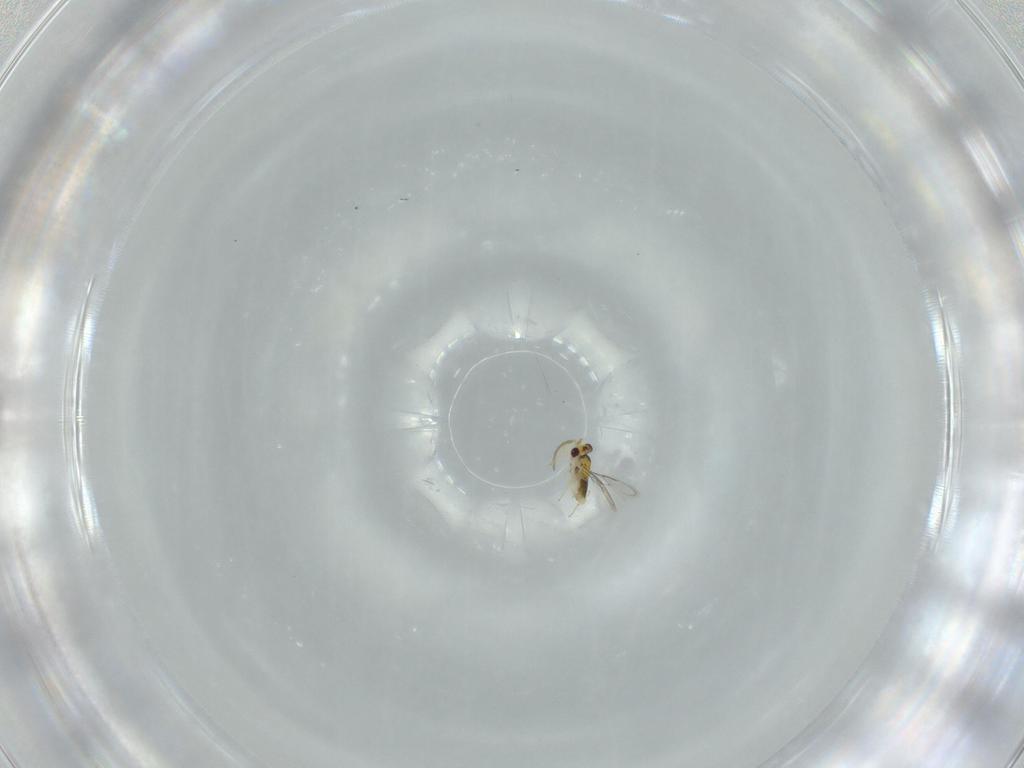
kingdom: Animalia
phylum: Arthropoda
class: Insecta
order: Hymenoptera
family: Aphelinidae
